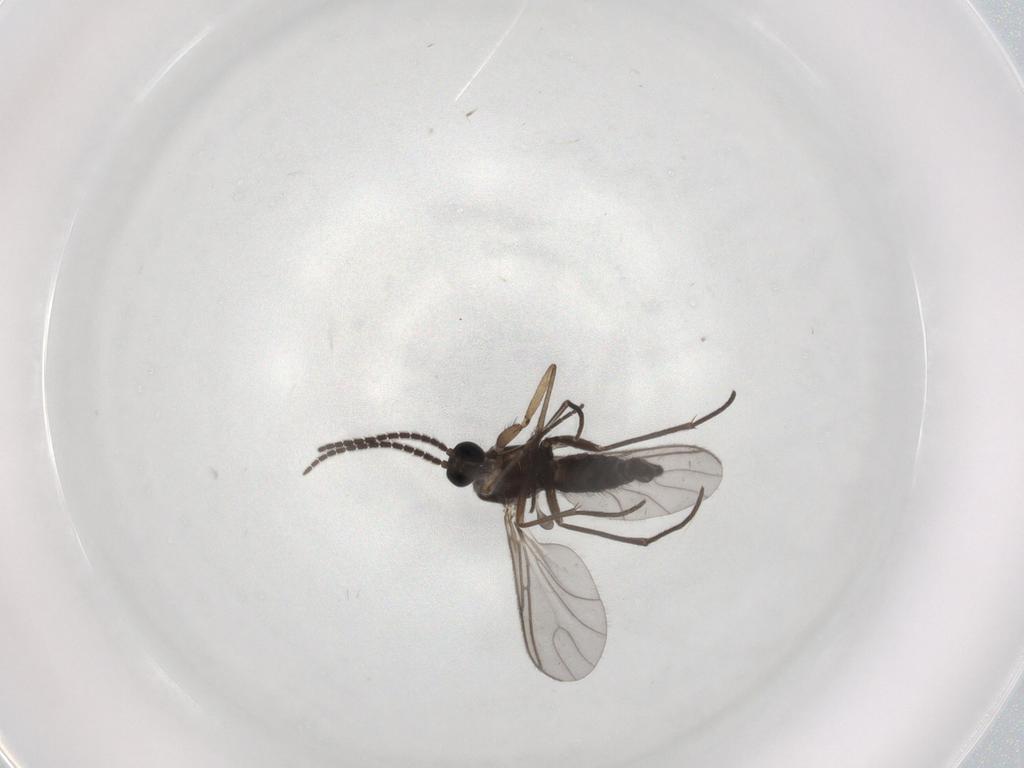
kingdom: Animalia
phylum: Arthropoda
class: Insecta
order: Diptera
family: Sciaridae
